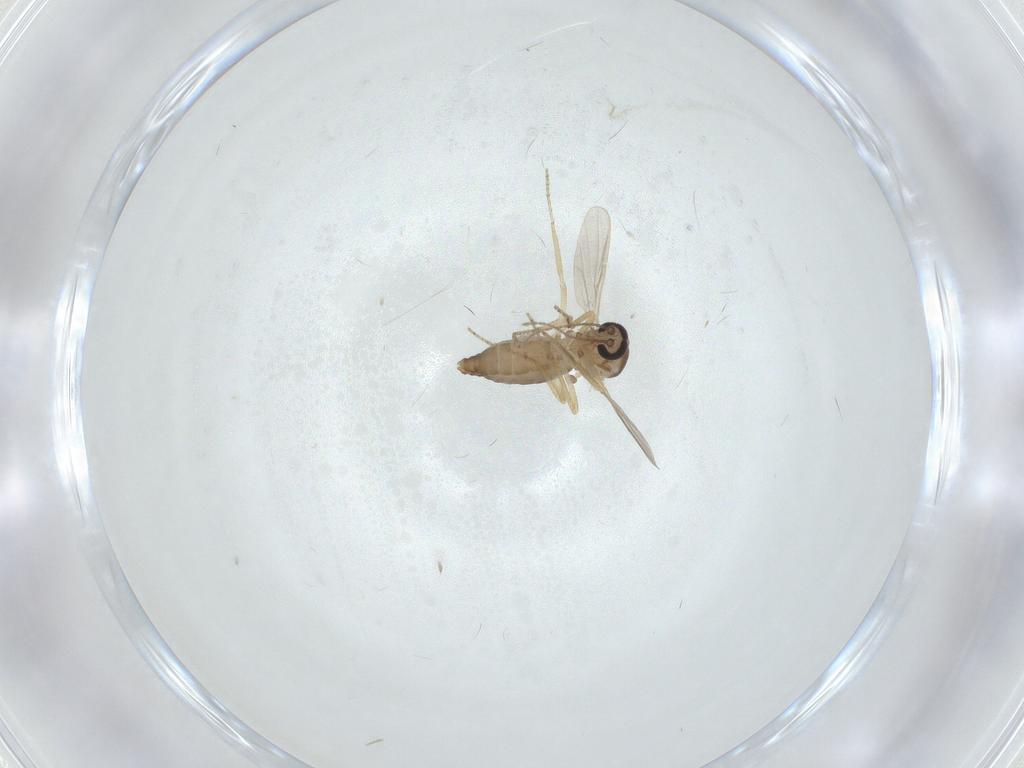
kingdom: Animalia
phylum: Arthropoda
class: Insecta
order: Diptera
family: Ceratopogonidae
